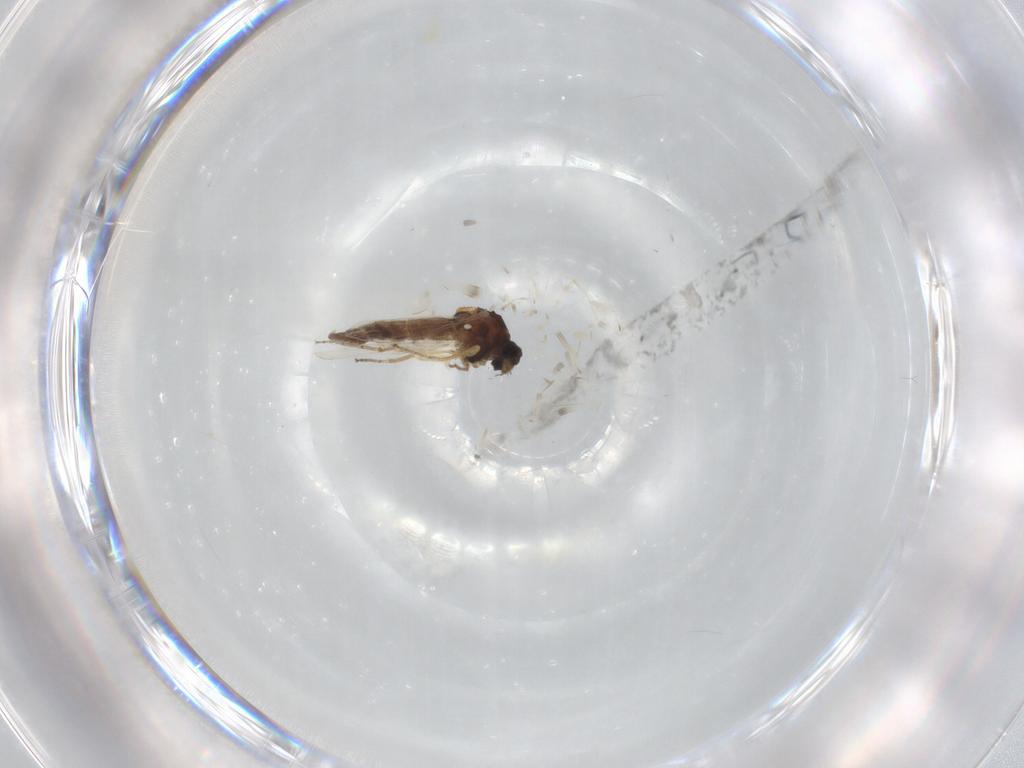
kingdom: Animalia
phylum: Arthropoda
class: Insecta
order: Diptera
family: Ceratopogonidae
